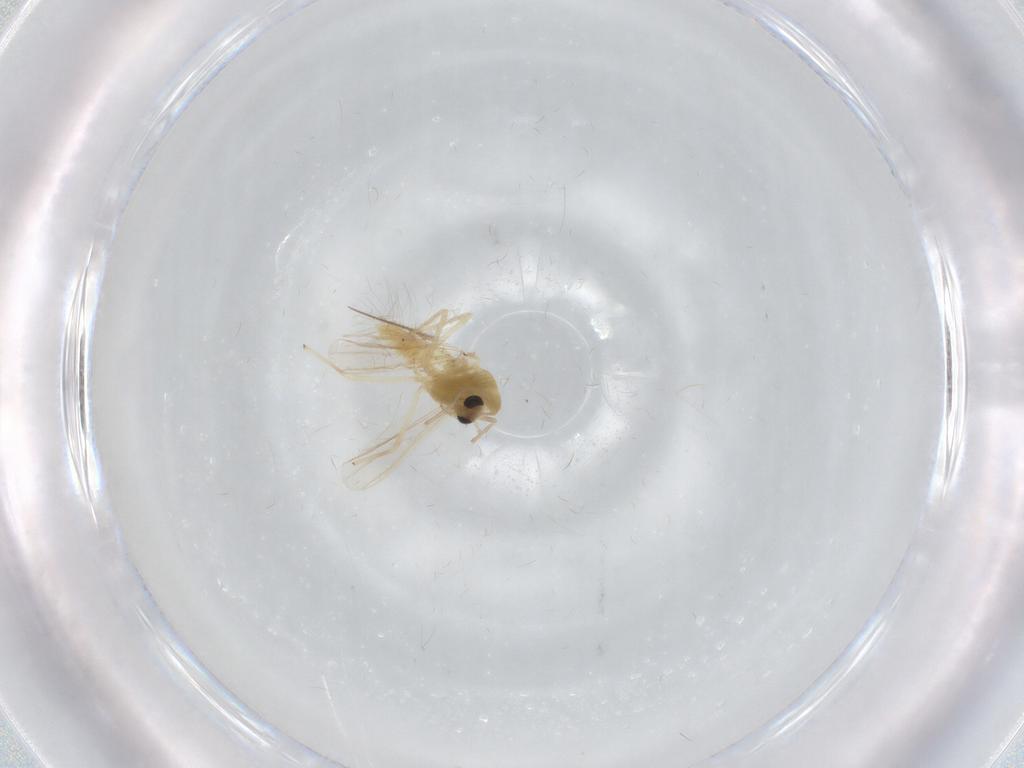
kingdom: Animalia
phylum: Arthropoda
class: Insecta
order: Diptera
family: Chironomidae
